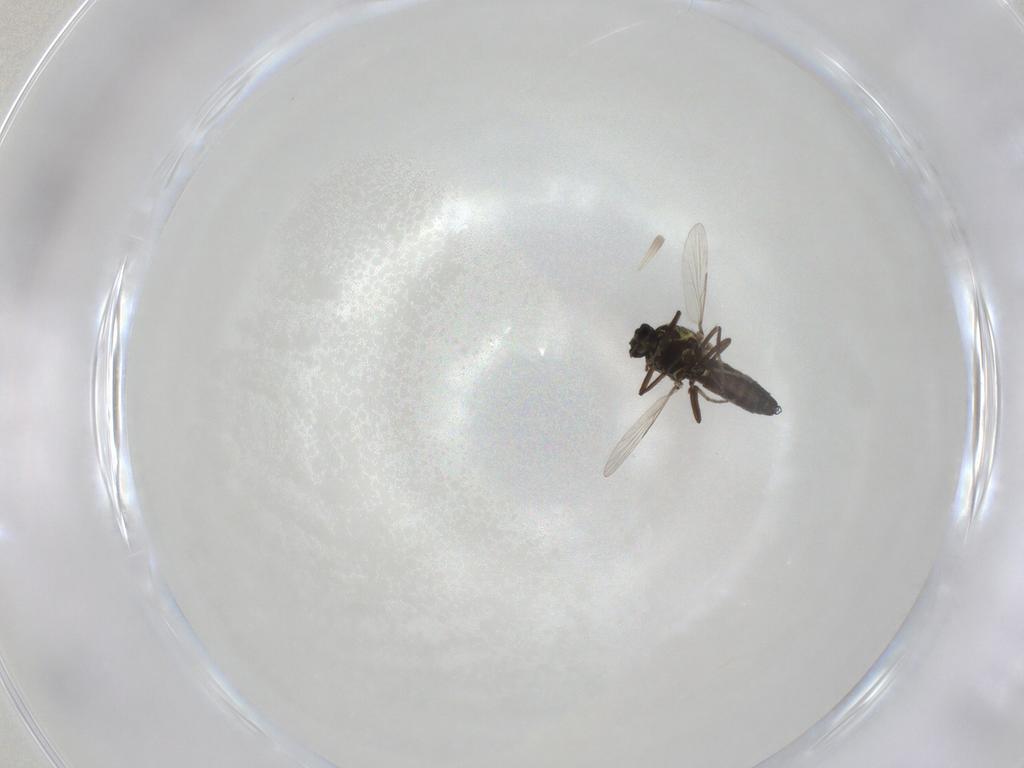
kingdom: Animalia
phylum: Arthropoda
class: Insecta
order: Diptera
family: Ceratopogonidae
